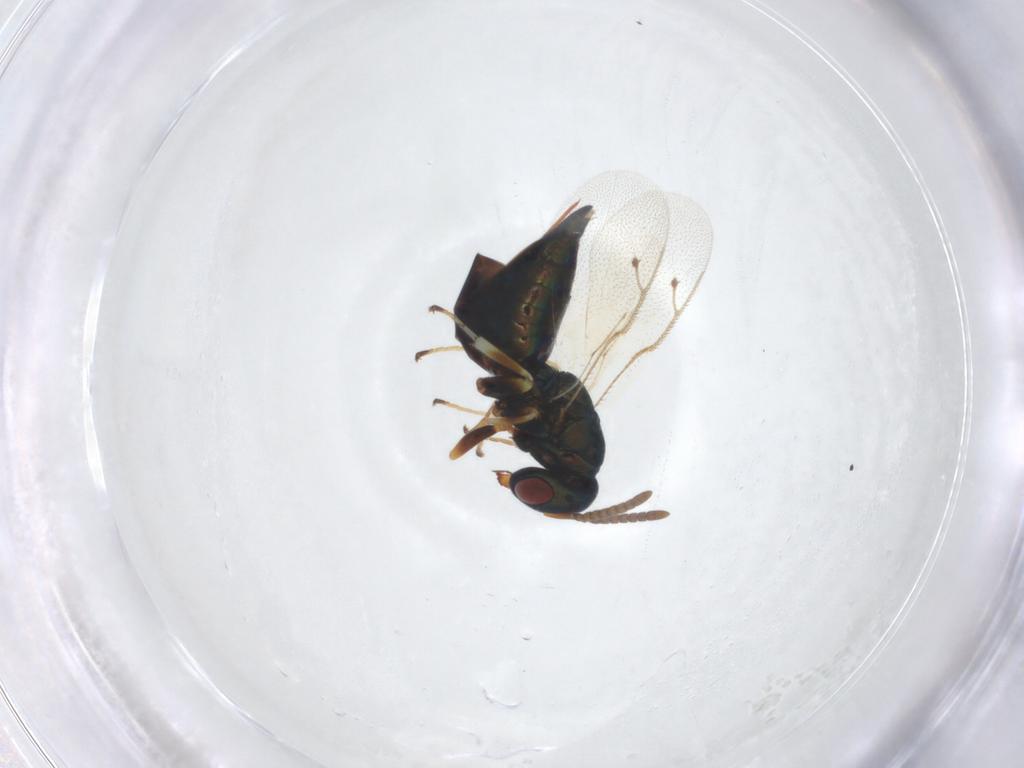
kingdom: Animalia
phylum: Arthropoda
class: Insecta
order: Hymenoptera
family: Pteromalidae
